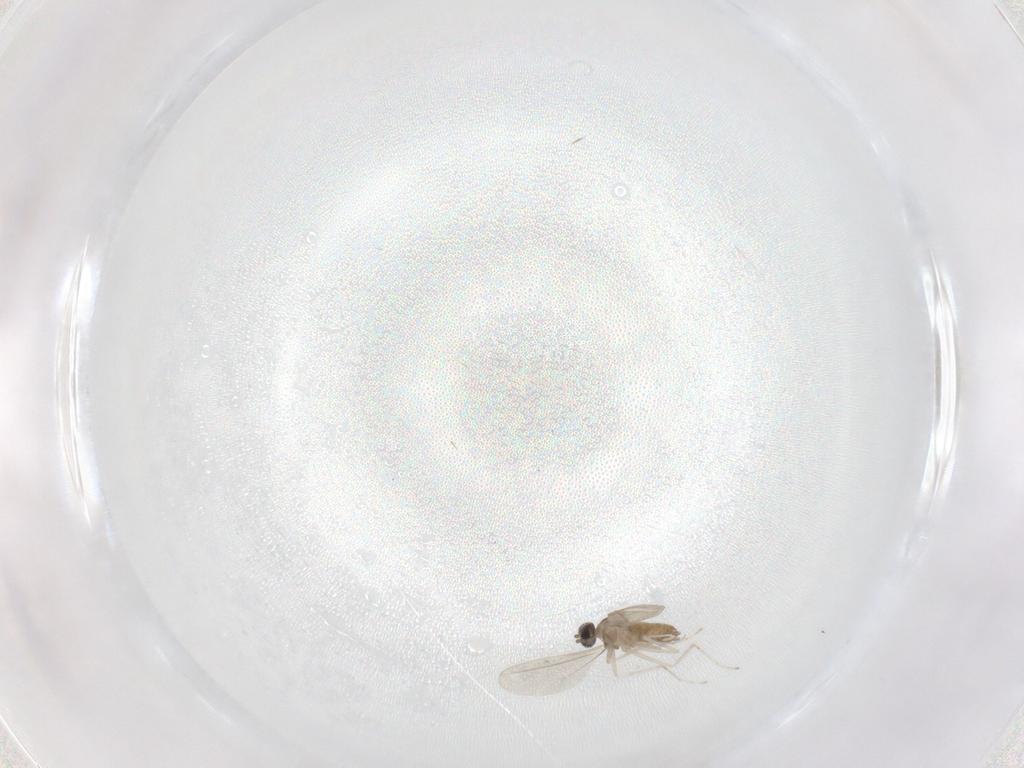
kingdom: Animalia
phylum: Arthropoda
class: Insecta
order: Diptera
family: Cecidomyiidae
